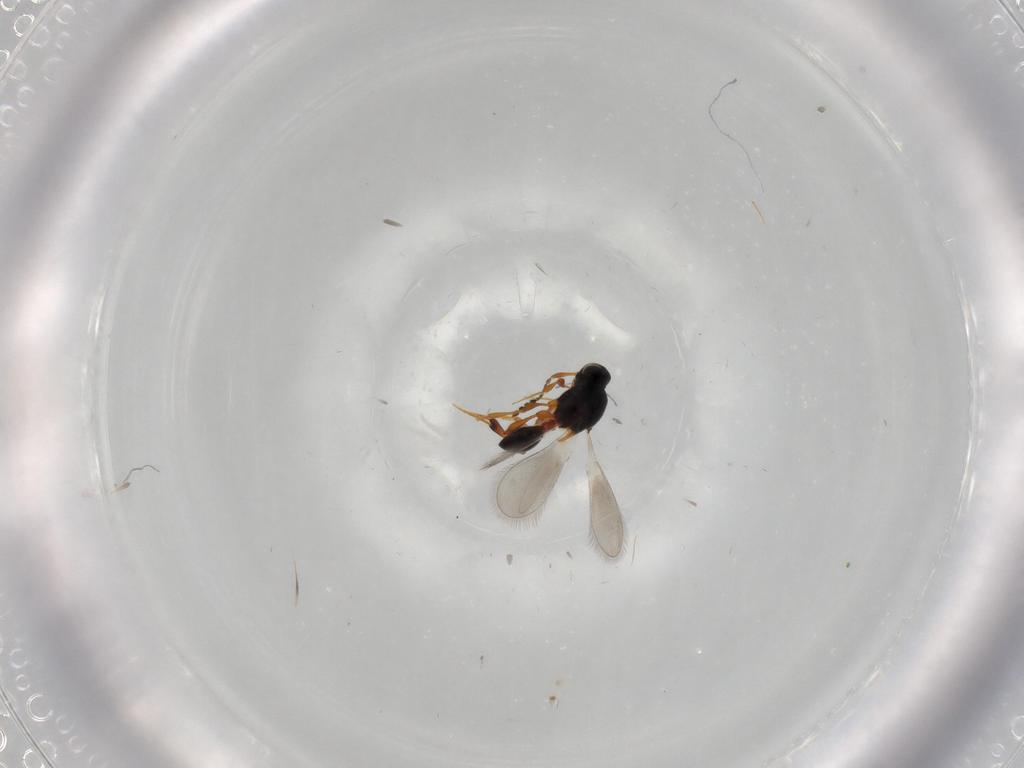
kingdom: Animalia
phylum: Arthropoda
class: Insecta
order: Hymenoptera
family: Platygastridae
